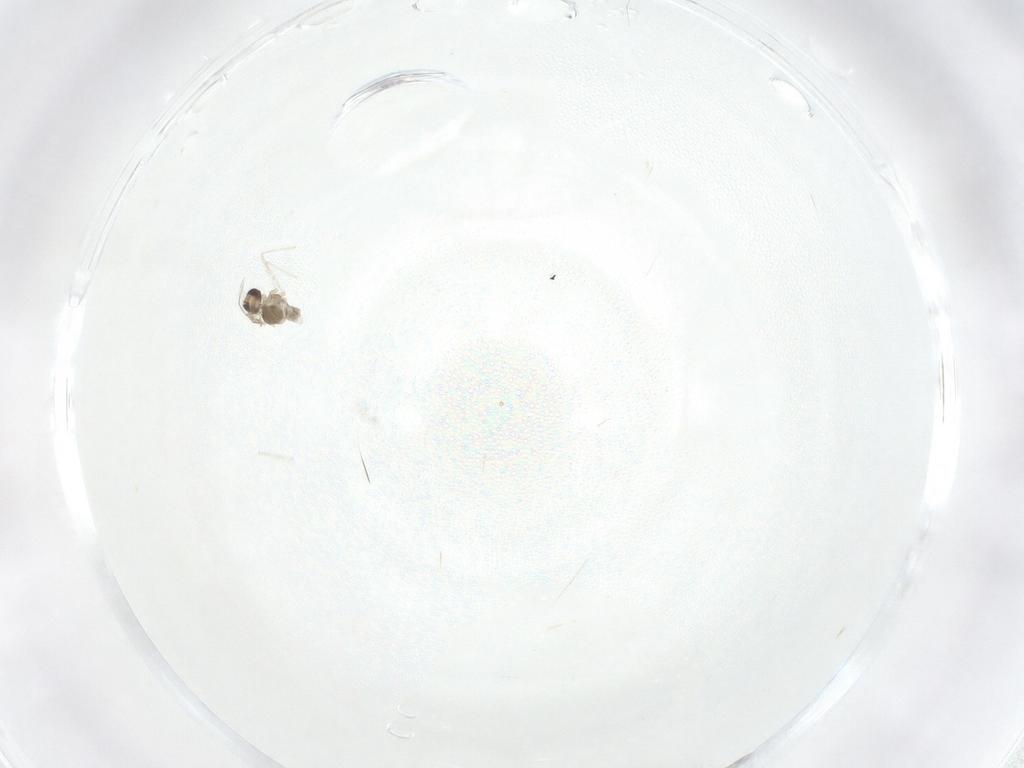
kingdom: Animalia
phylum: Arthropoda
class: Insecta
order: Diptera
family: Cecidomyiidae
